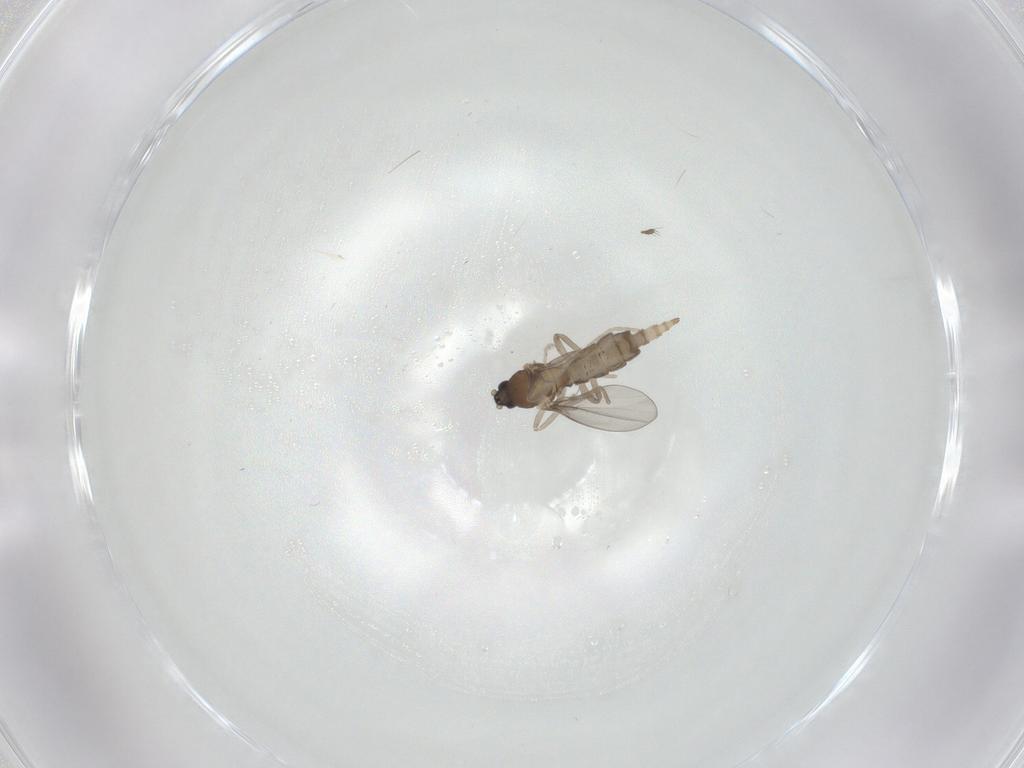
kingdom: Animalia
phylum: Arthropoda
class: Insecta
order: Diptera
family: Cecidomyiidae
